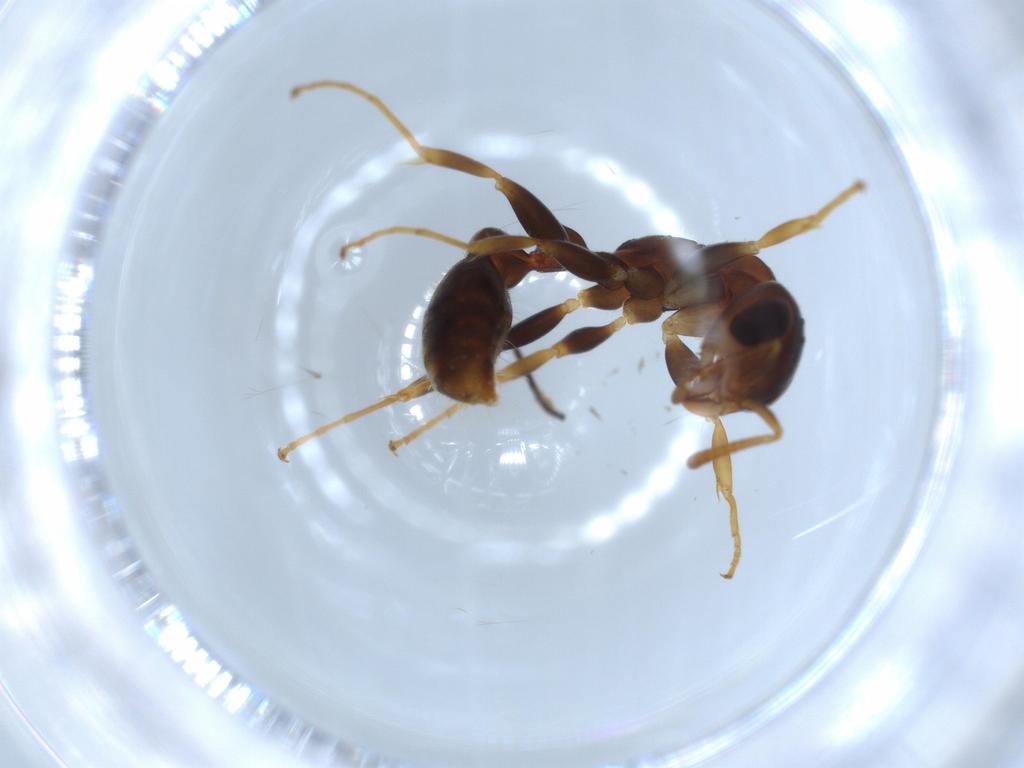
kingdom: Animalia
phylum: Arthropoda
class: Insecta
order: Hymenoptera
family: Formicidae
